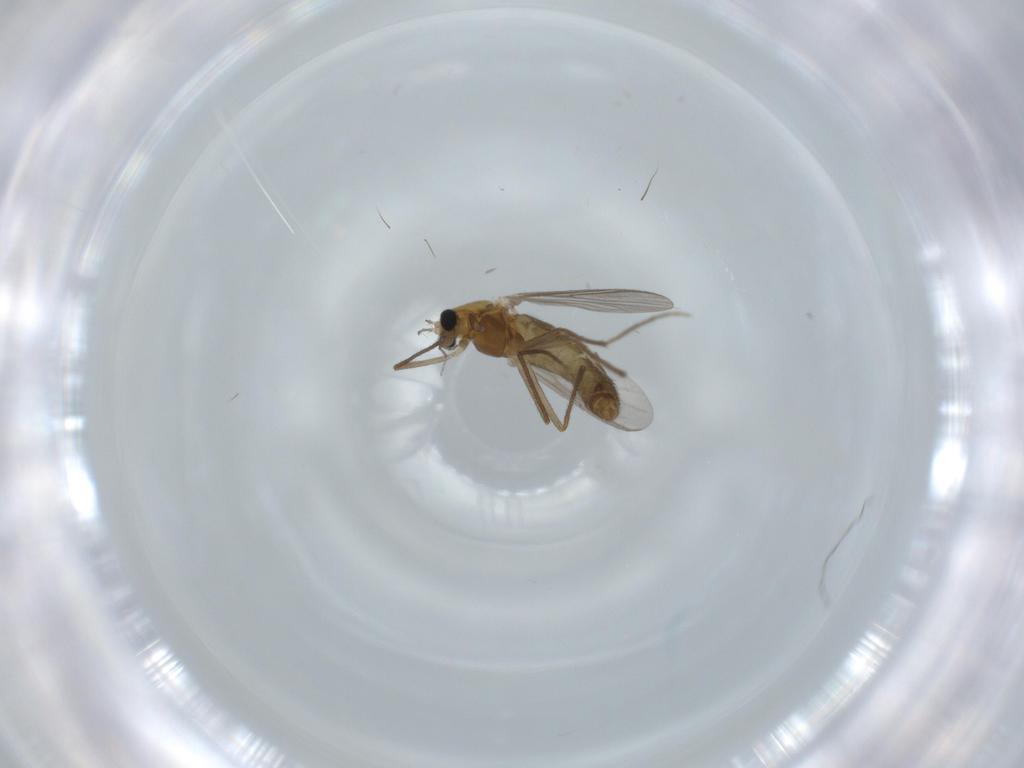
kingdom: Animalia
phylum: Arthropoda
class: Insecta
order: Diptera
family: Chironomidae
